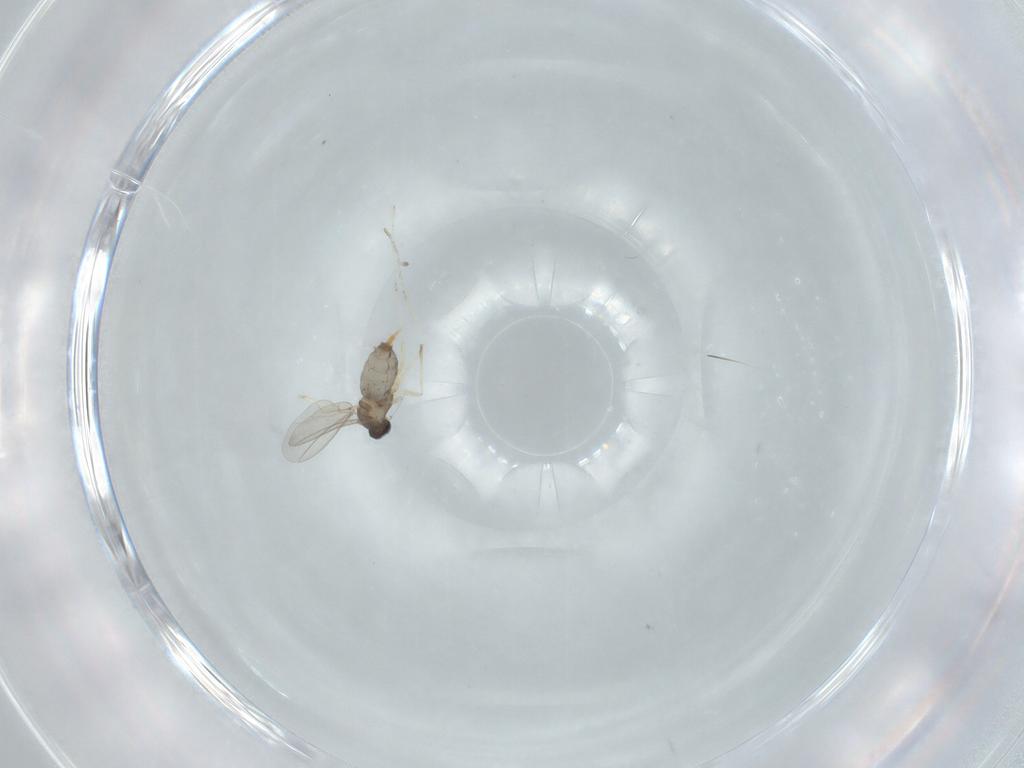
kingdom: Animalia
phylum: Arthropoda
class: Insecta
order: Diptera
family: Cecidomyiidae
